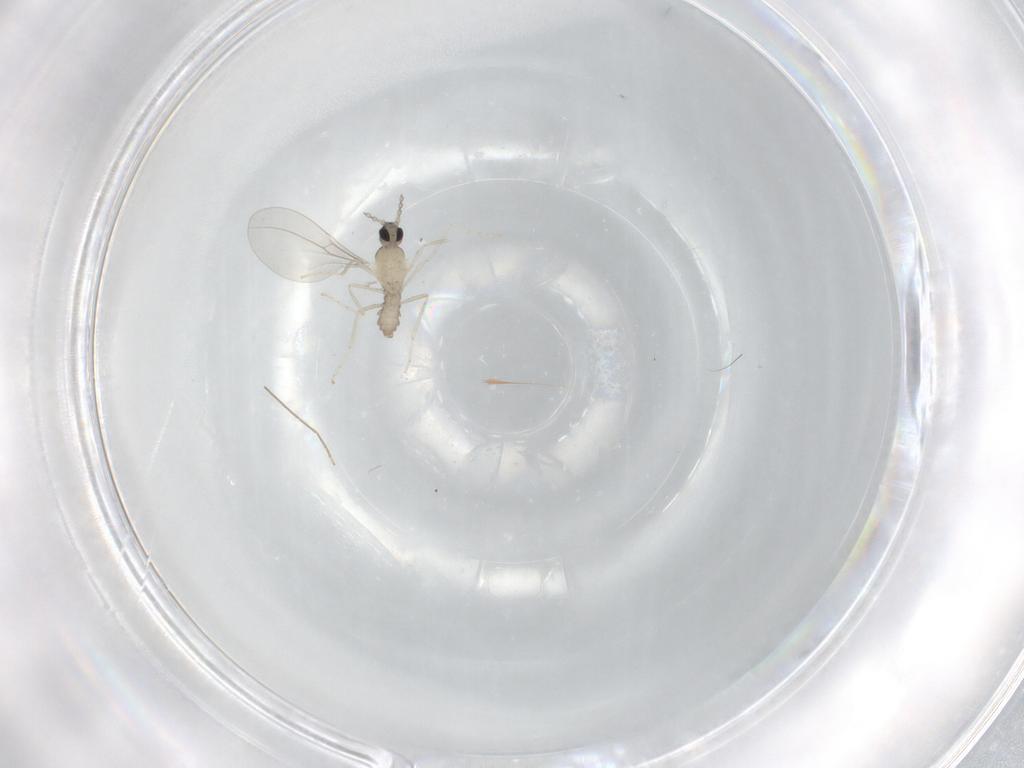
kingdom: Animalia
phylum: Arthropoda
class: Insecta
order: Diptera
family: Cecidomyiidae
